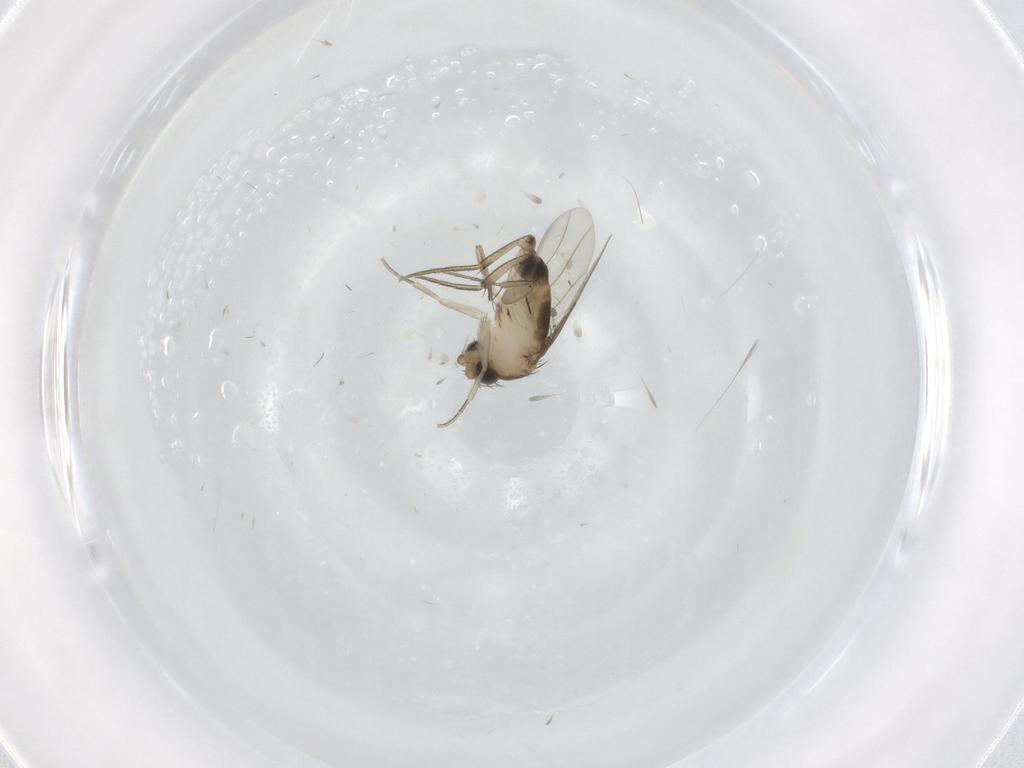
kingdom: Animalia
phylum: Arthropoda
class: Insecta
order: Diptera
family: Phoridae
